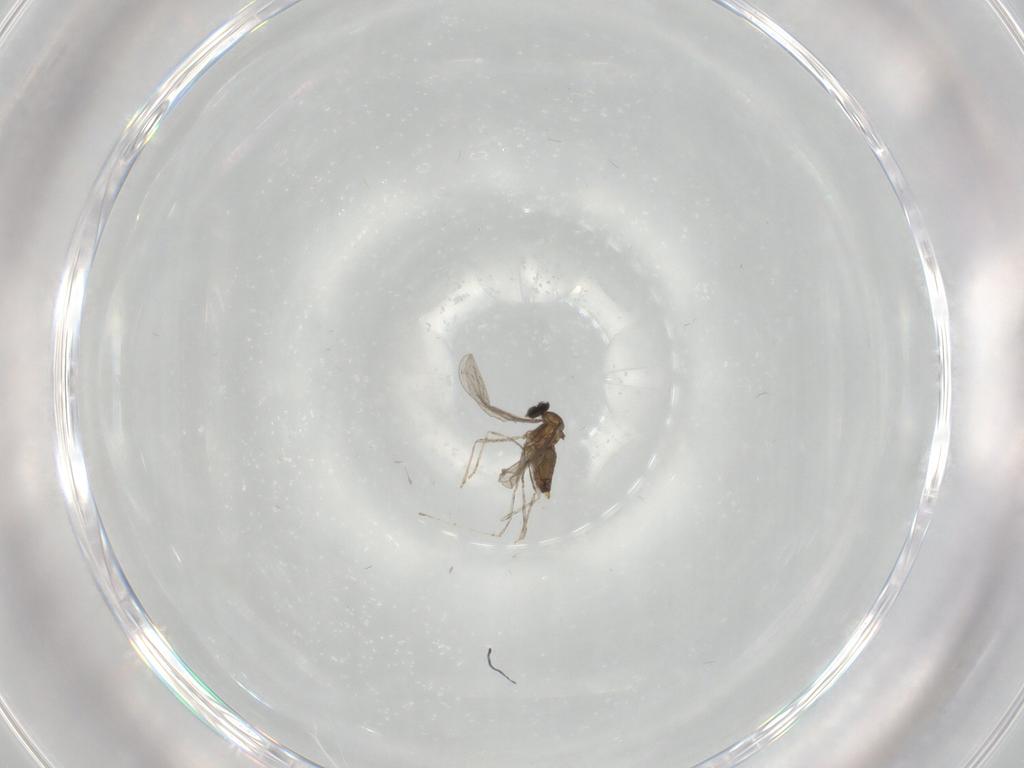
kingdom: Animalia
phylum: Arthropoda
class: Insecta
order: Diptera
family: Cecidomyiidae
